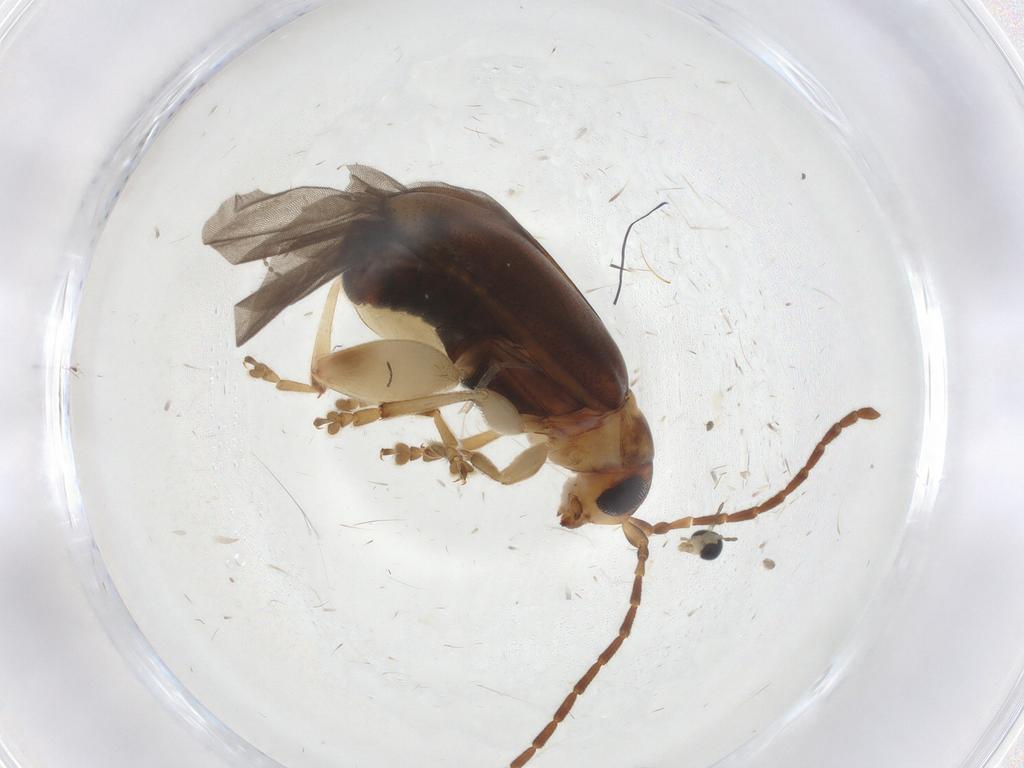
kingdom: Animalia
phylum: Arthropoda
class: Insecta
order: Coleoptera
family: Chrysomelidae
